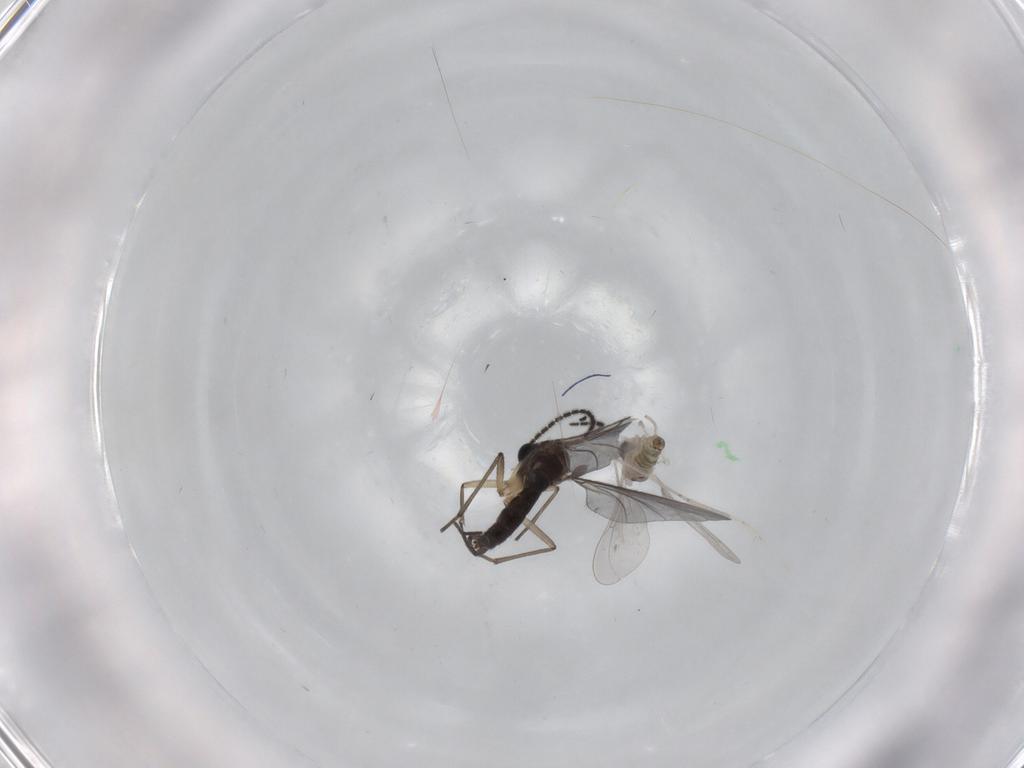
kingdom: Animalia
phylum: Arthropoda
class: Insecta
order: Diptera
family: Sciaridae
